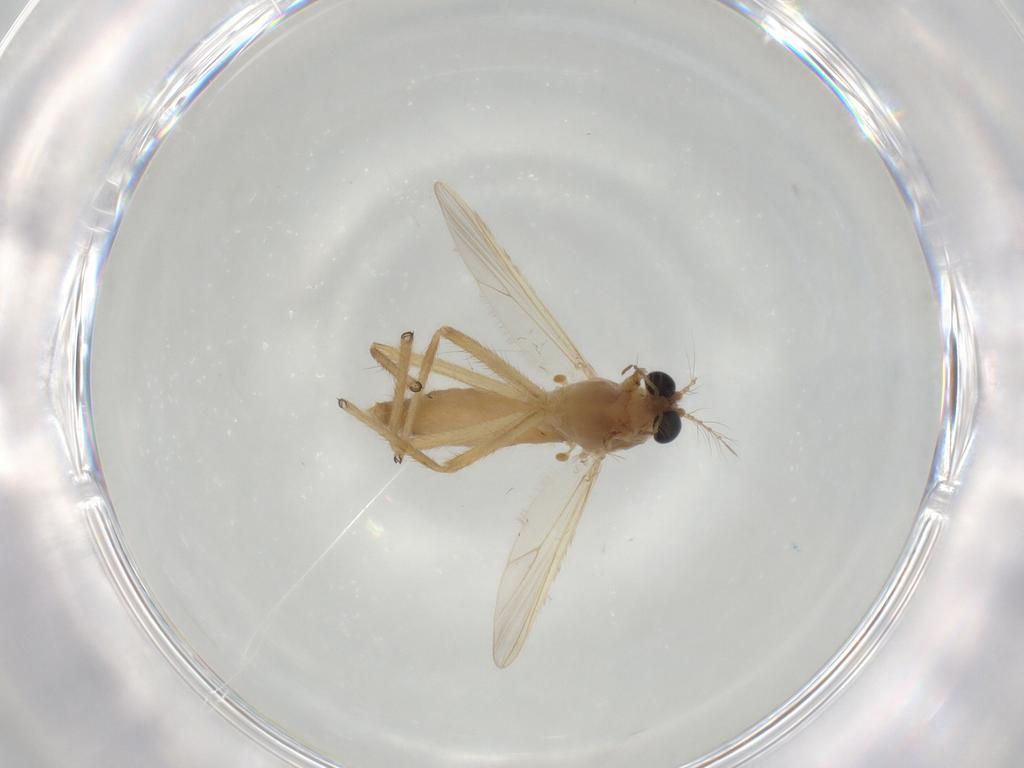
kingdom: Animalia
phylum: Arthropoda
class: Insecta
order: Diptera
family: Chironomidae
